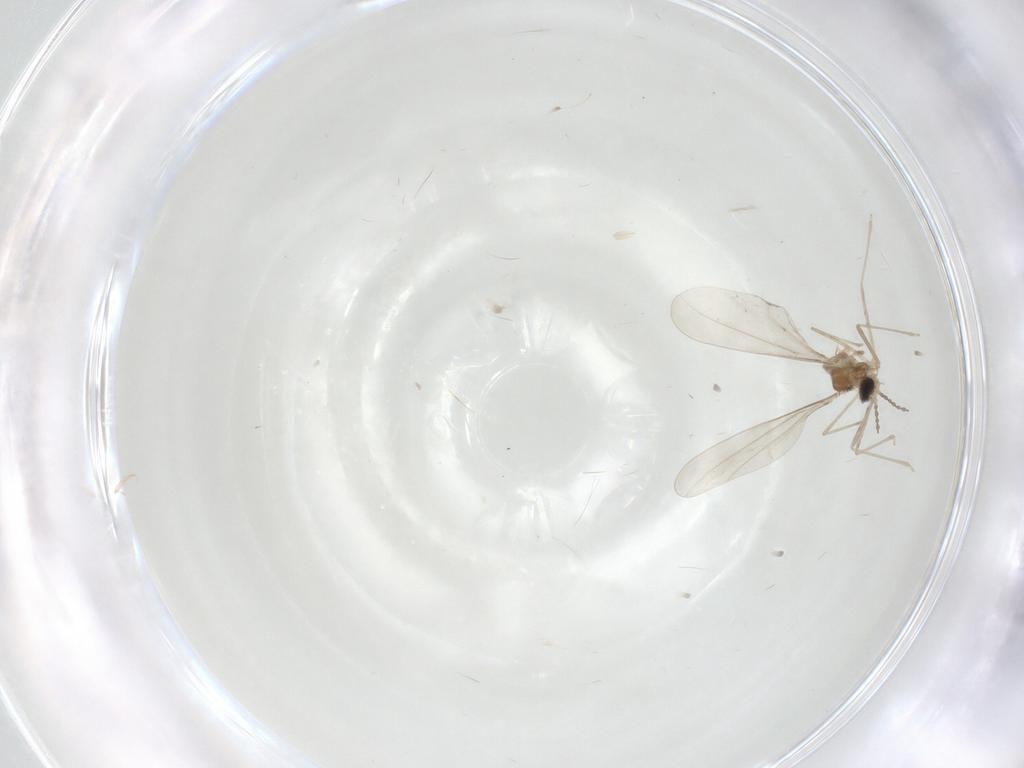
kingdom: Animalia
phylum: Arthropoda
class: Insecta
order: Diptera
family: Psychodidae
